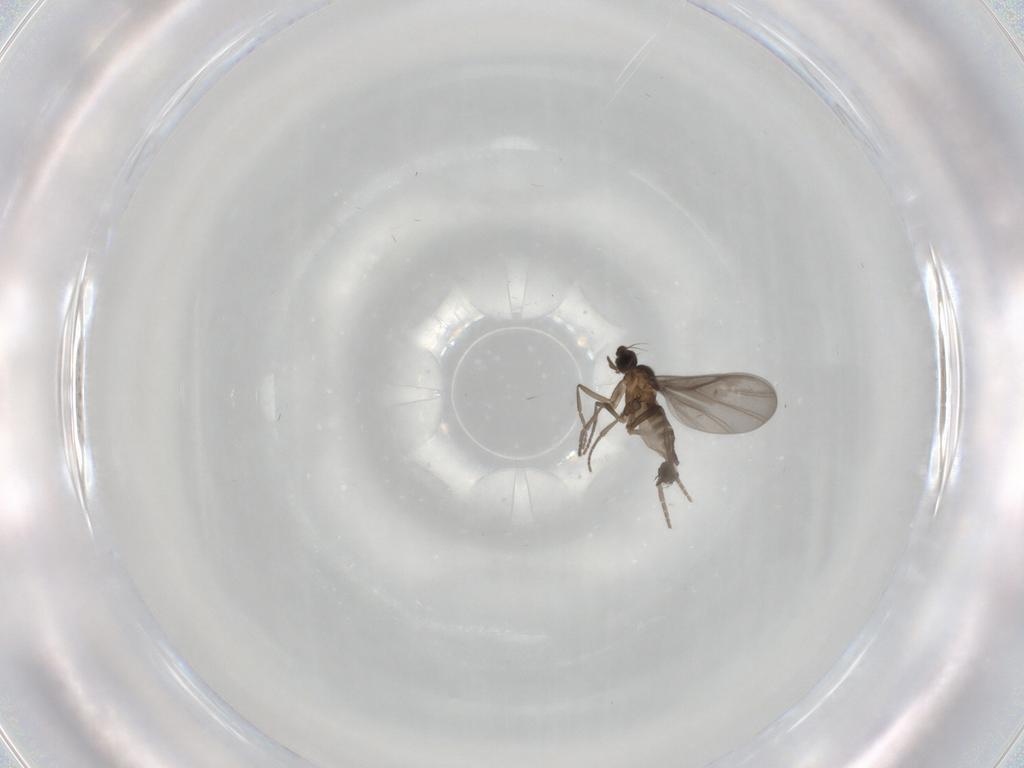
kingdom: Animalia
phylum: Arthropoda
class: Insecta
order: Diptera
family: Phoridae
